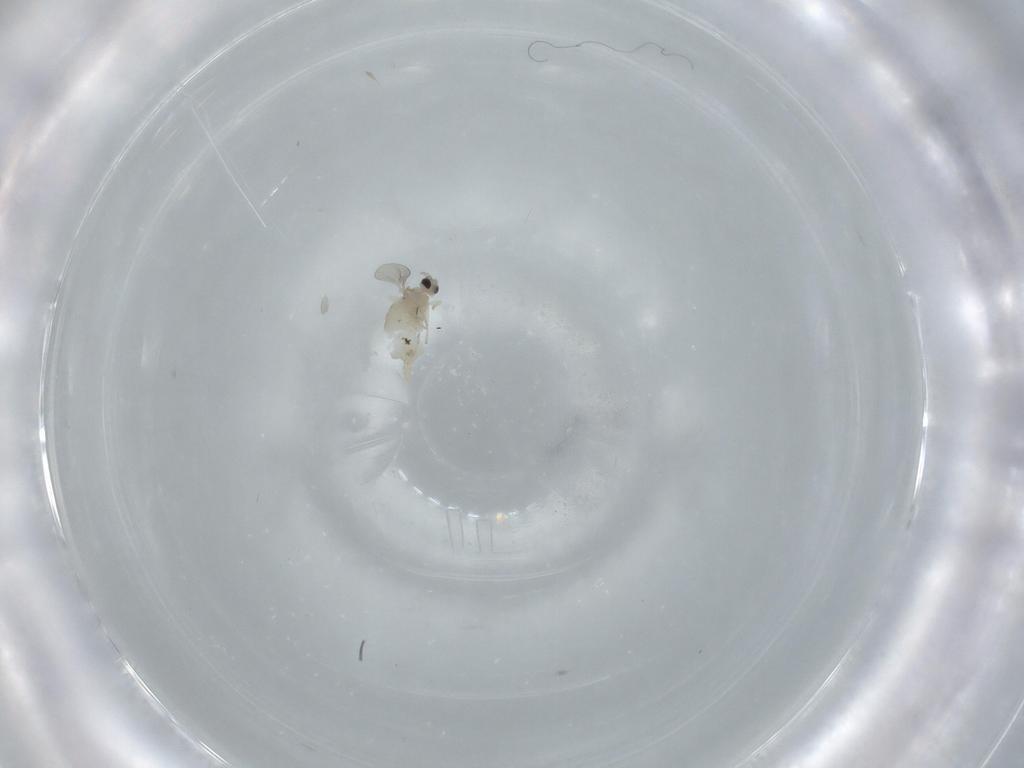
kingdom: Animalia
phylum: Arthropoda
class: Insecta
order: Diptera
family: Cecidomyiidae
